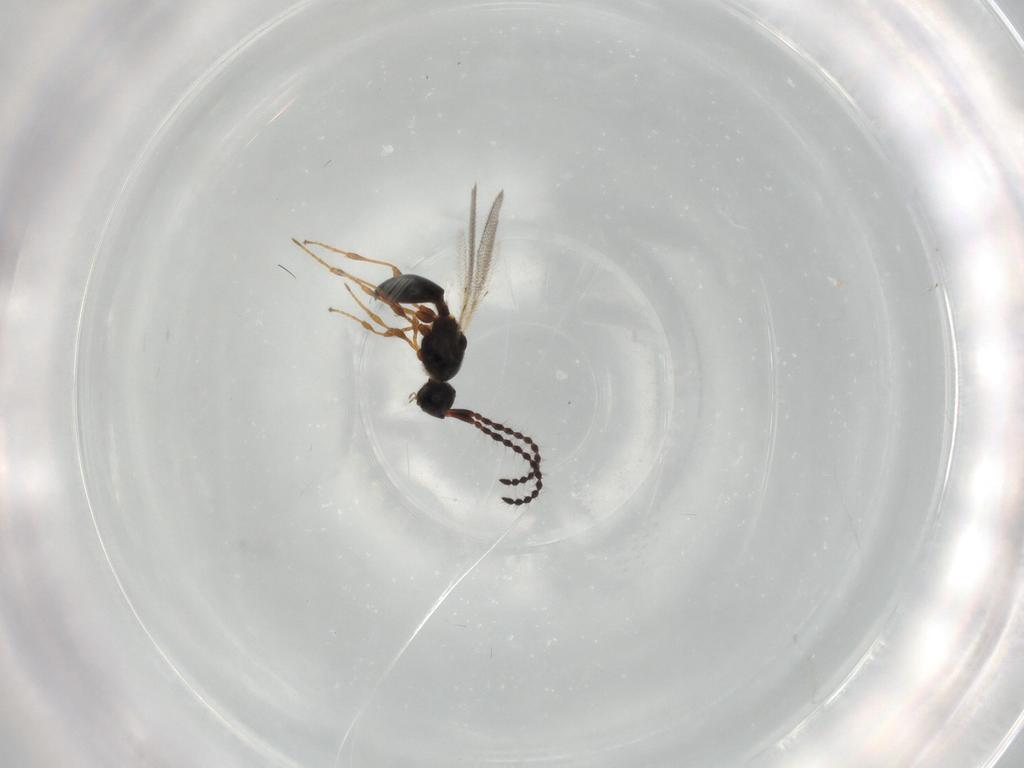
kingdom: Animalia
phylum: Arthropoda
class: Insecta
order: Hymenoptera
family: Diapriidae
